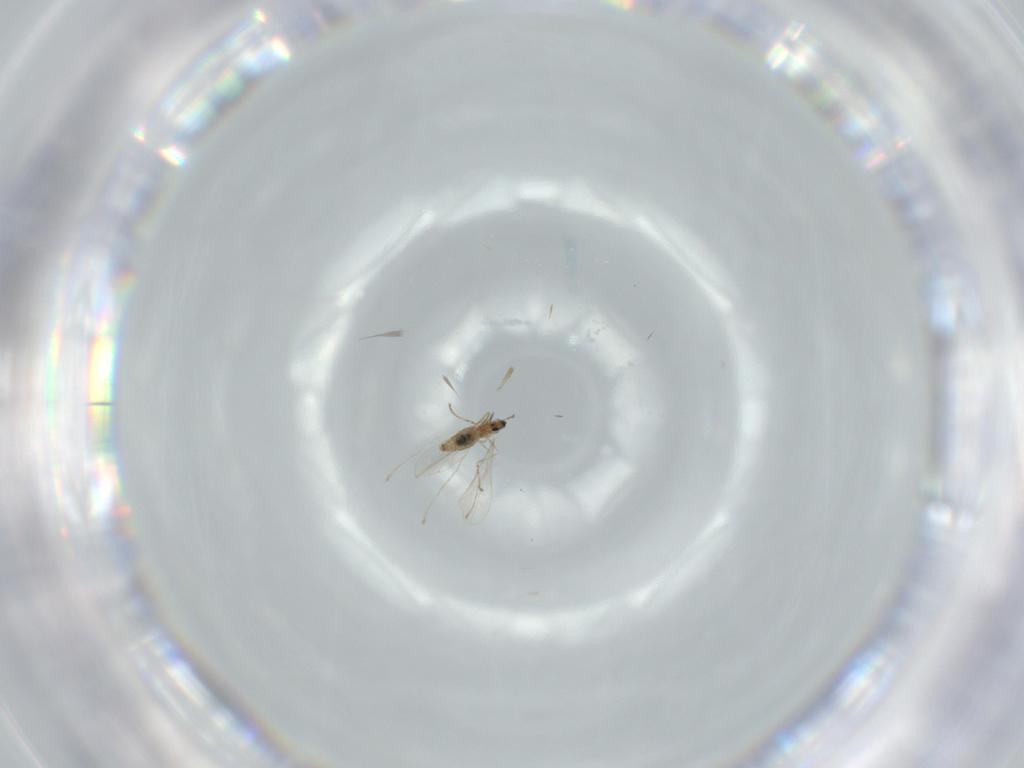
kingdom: Animalia
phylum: Arthropoda
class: Insecta
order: Diptera
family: Cecidomyiidae
